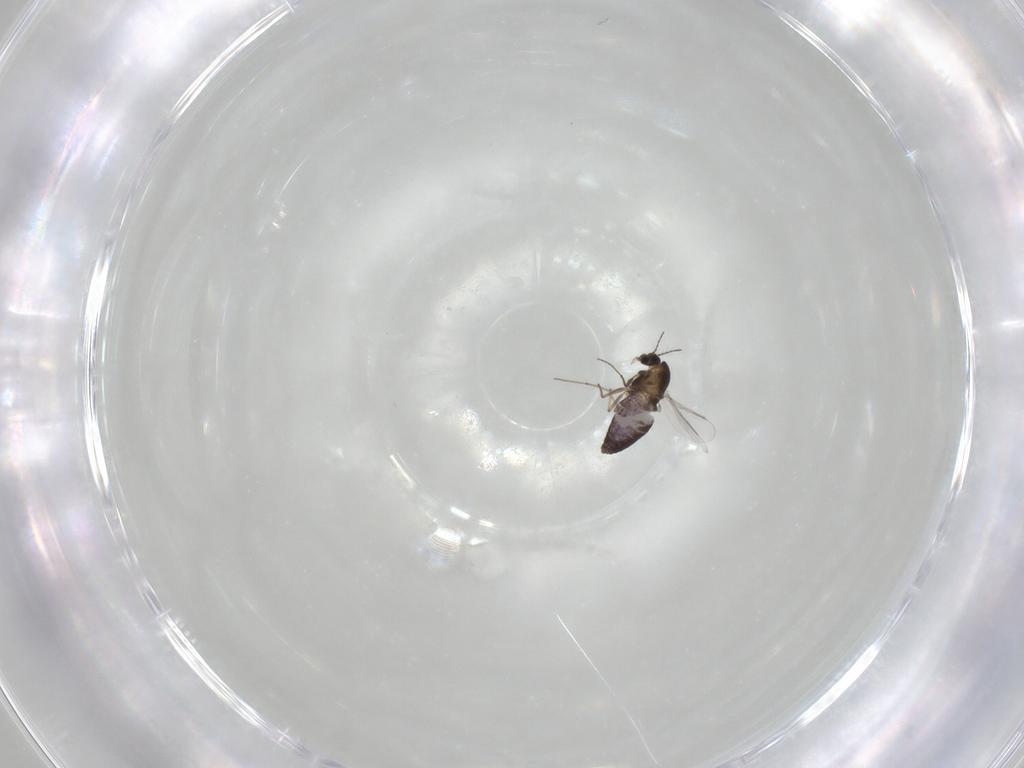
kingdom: Animalia
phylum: Arthropoda
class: Insecta
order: Diptera
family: Chironomidae
